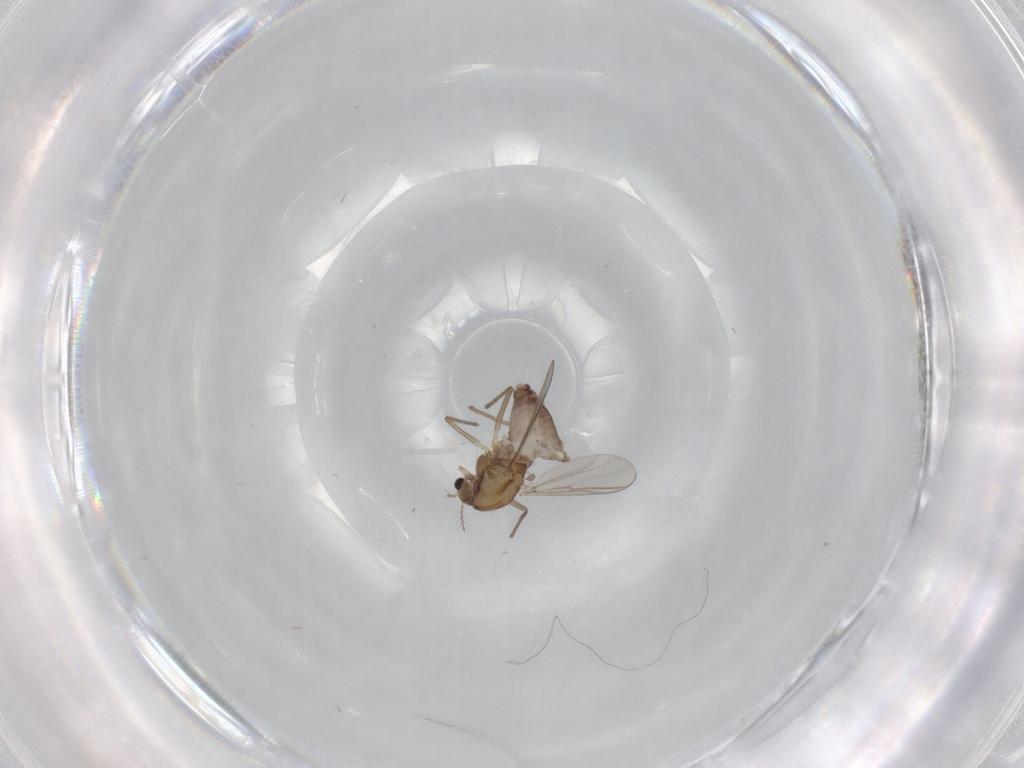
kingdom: Animalia
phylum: Arthropoda
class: Insecta
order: Diptera
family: Chironomidae
